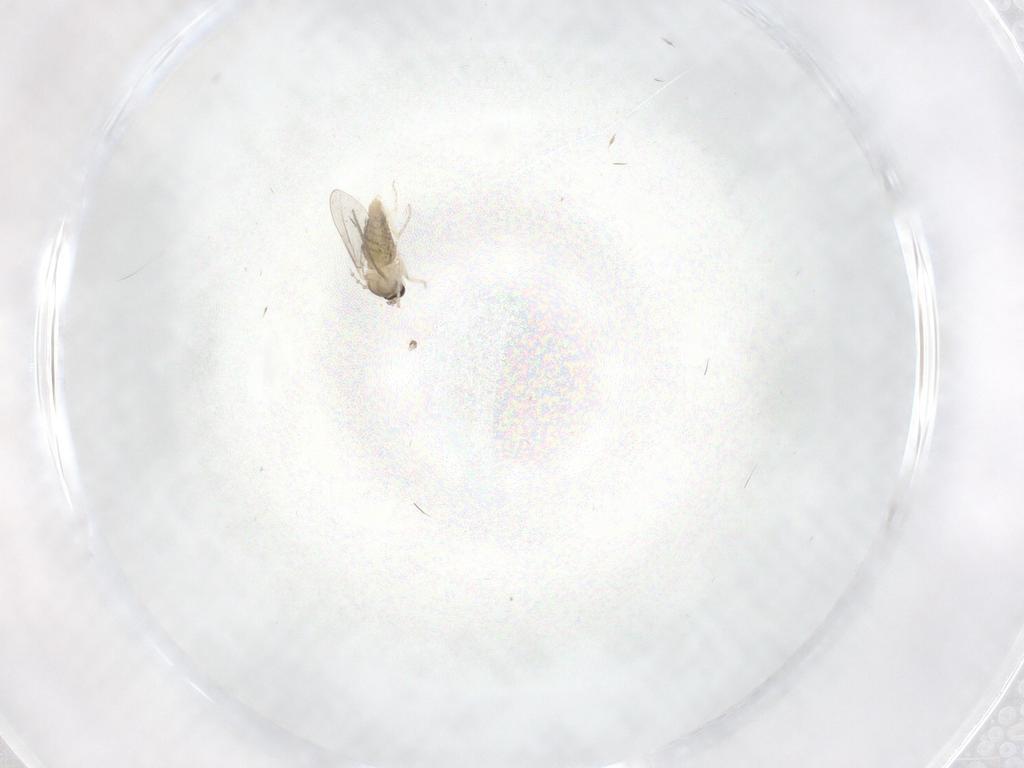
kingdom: Animalia
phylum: Arthropoda
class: Insecta
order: Diptera
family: Cecidomyiidae
